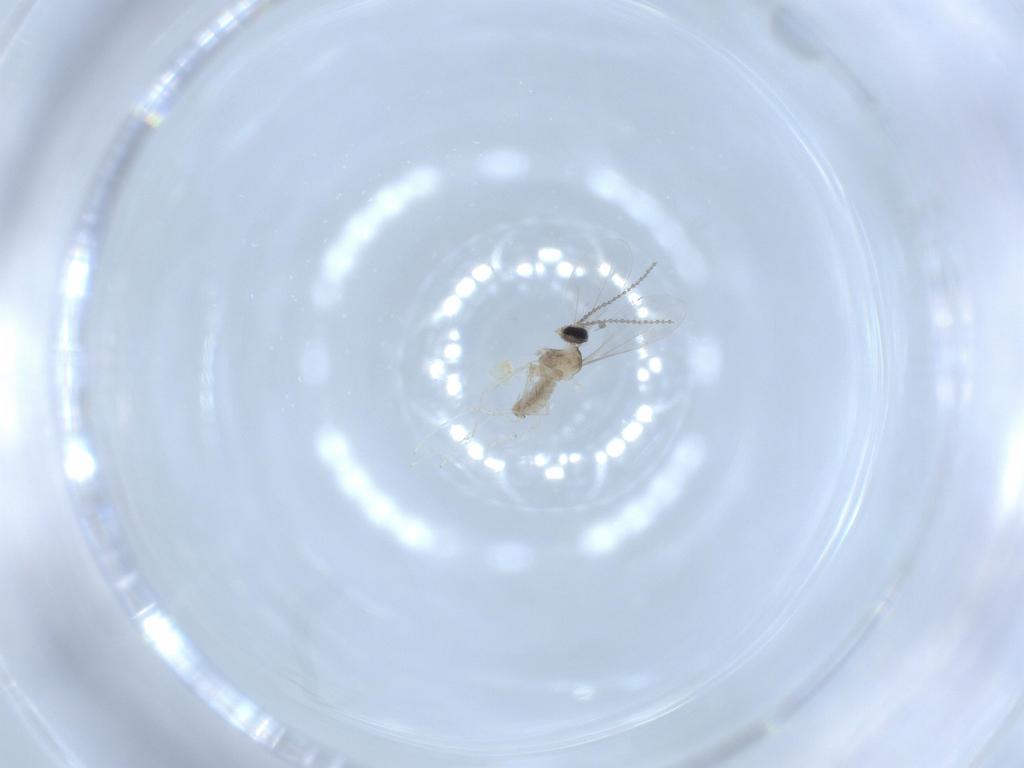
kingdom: Animalia
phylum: Arthropoda
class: Insecta
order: Diptera
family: Cecidomyiidae
